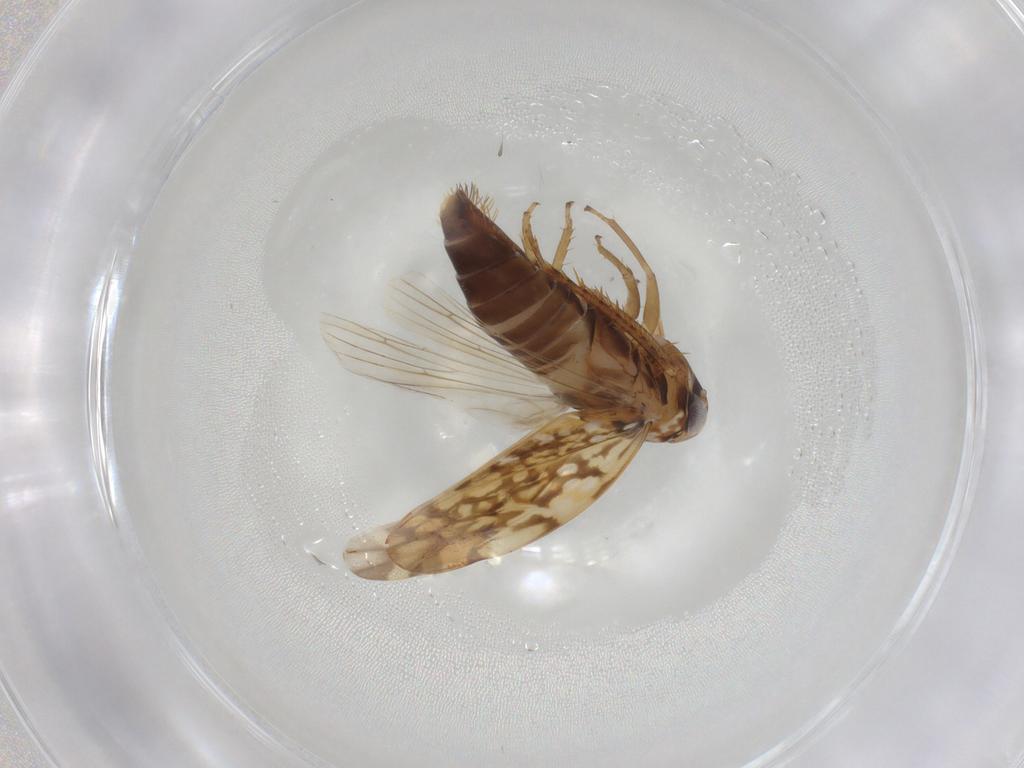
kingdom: Animalia
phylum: Arthropoda
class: Insecta
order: Hemiptera
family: Cicadellidae
